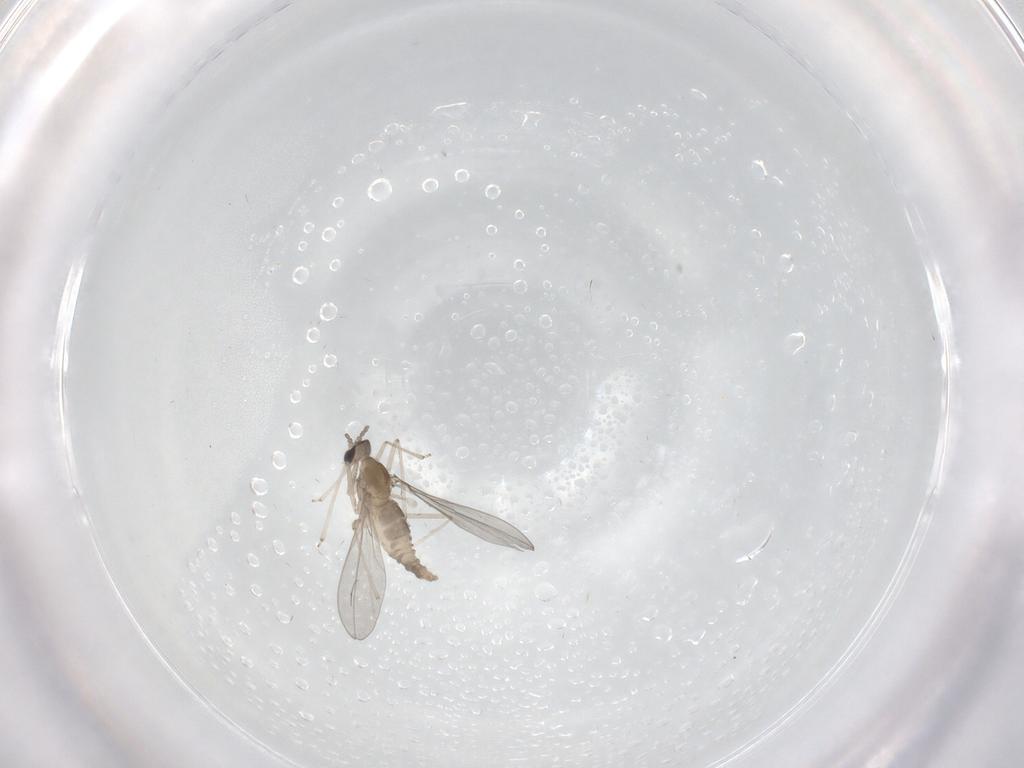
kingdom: Animalia
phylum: Arthropoda
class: Insecta
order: Diptera
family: Cecidomyiidae
